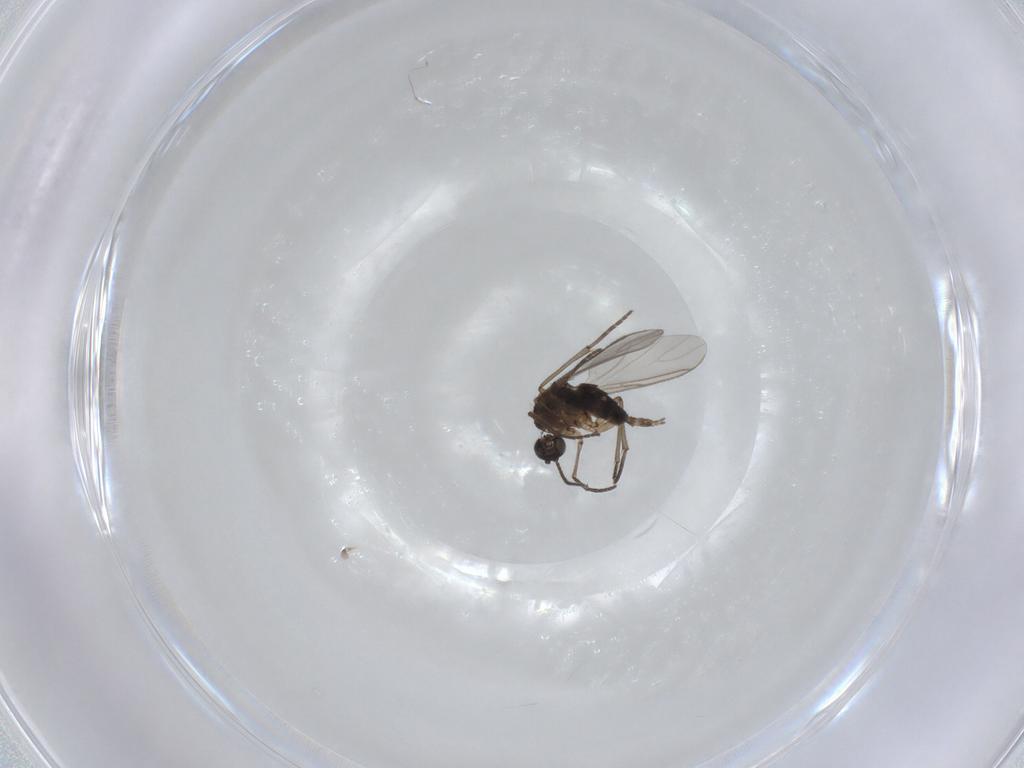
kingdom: Animalia
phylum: Arthropoda
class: Insecta
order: Diptera
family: Sciaridae
